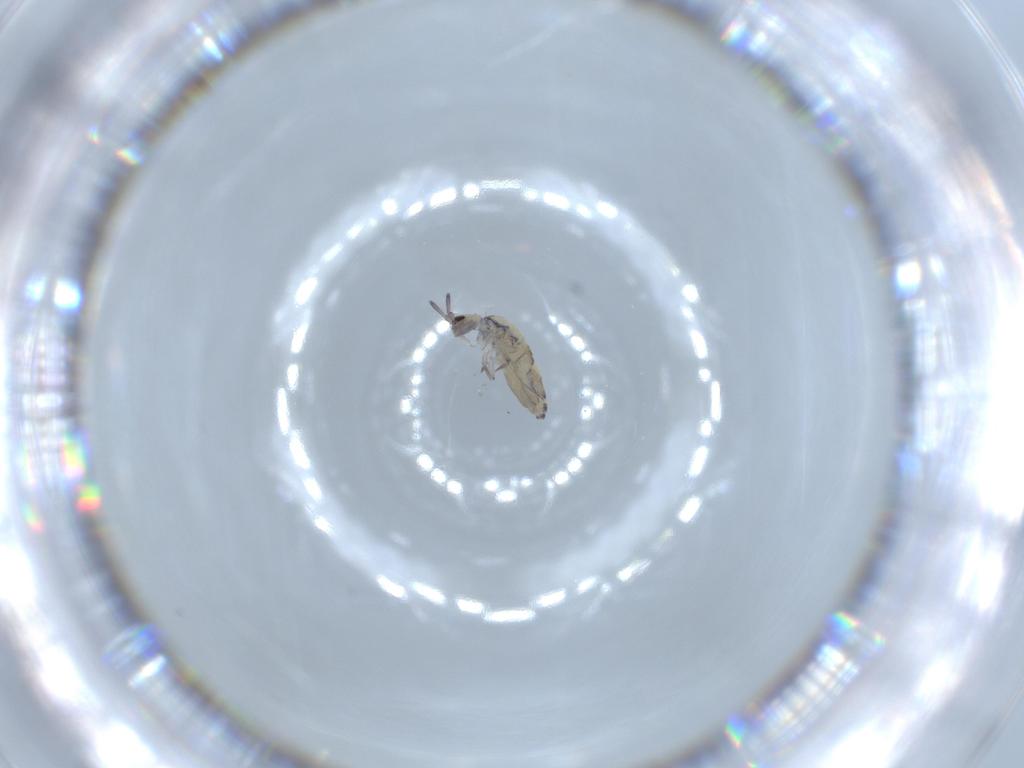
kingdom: Animalia
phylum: Arthropoda
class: Collembola
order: Entomobryomorpha
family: Entomobryidae
